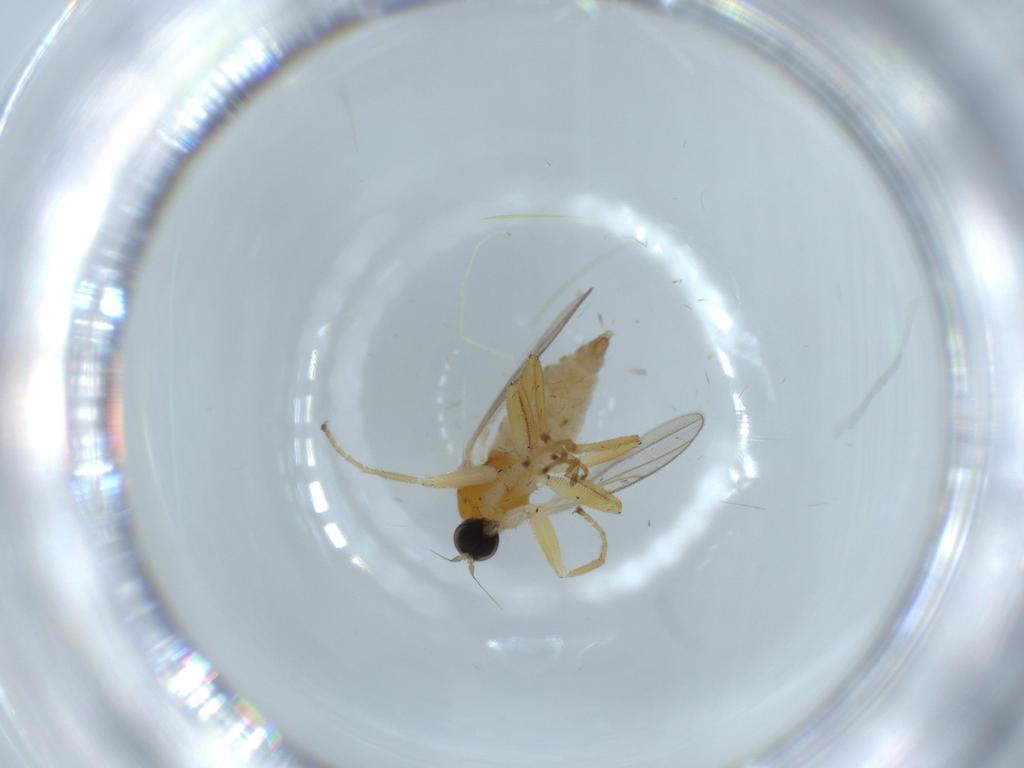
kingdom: Animalia
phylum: Arthropoda
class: Insecta
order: Diptera
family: Hybotidae
